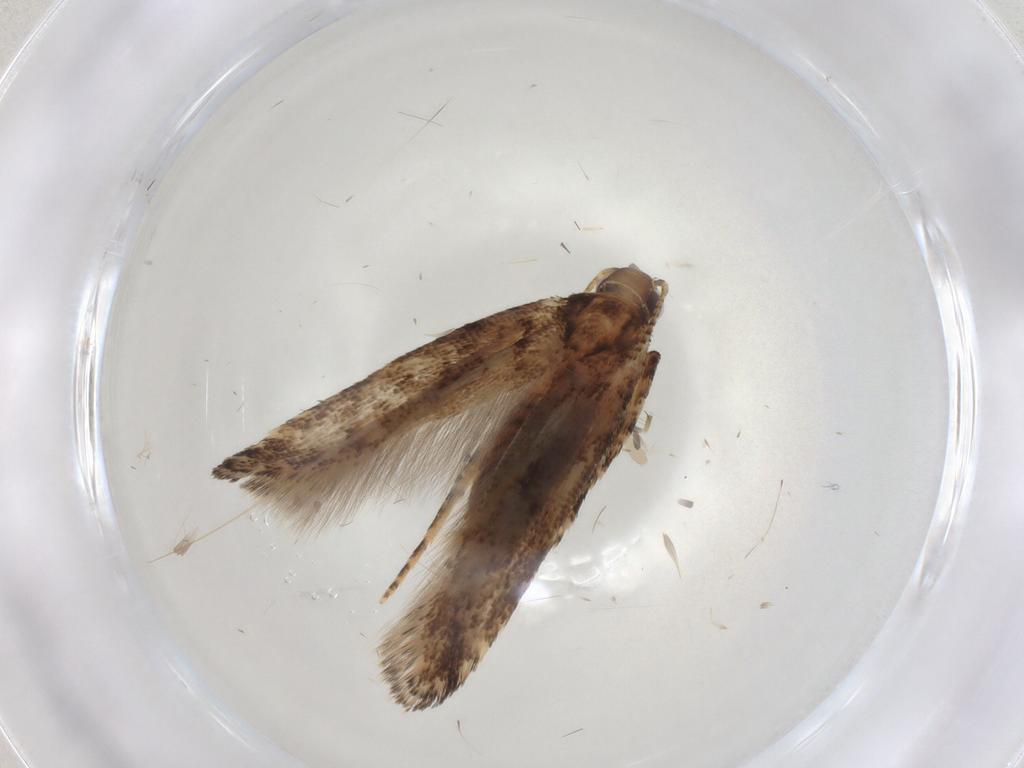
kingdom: Animalia
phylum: Arthropoda
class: Insecta
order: Lepidoptera
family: Gelechiidae
